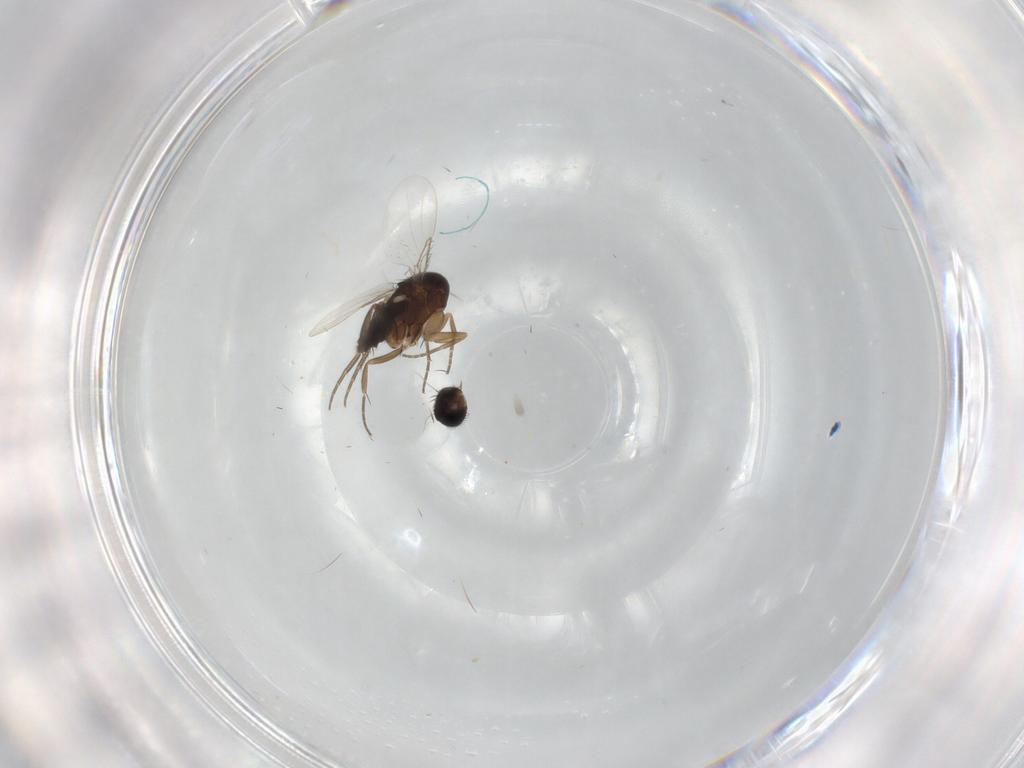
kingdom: Animalia
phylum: Arthropoda
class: Insecta
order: Diptera
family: Phoridae
